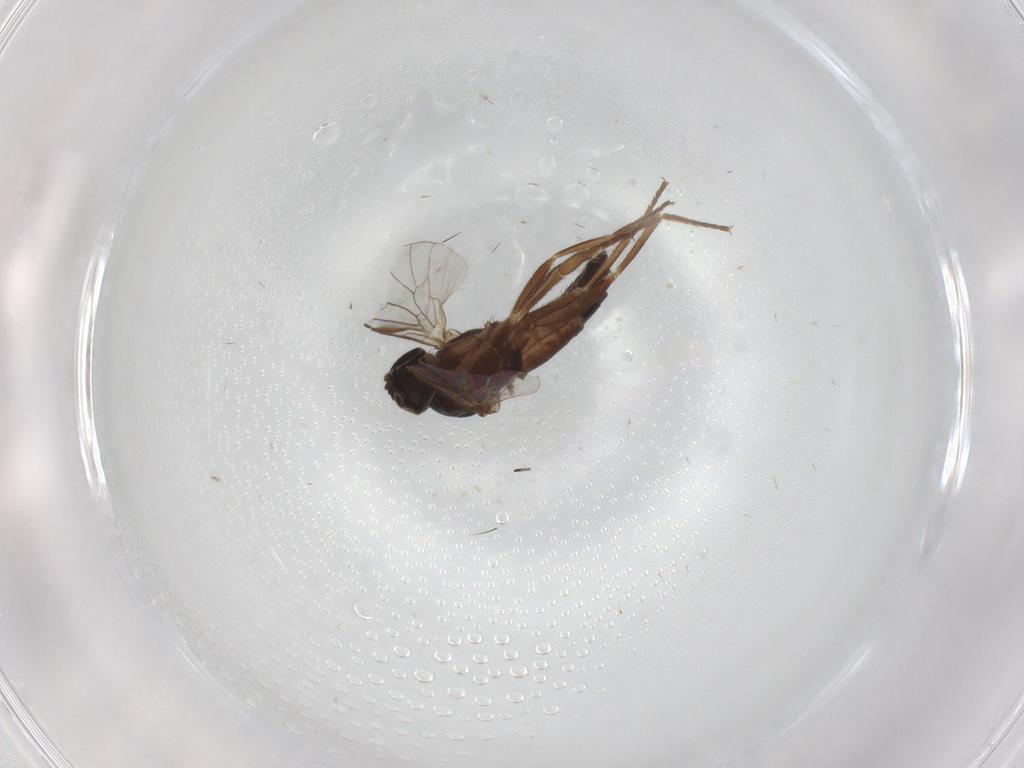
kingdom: Animalia
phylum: Arthropoda
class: Insecta
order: Diptera
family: Empididae
